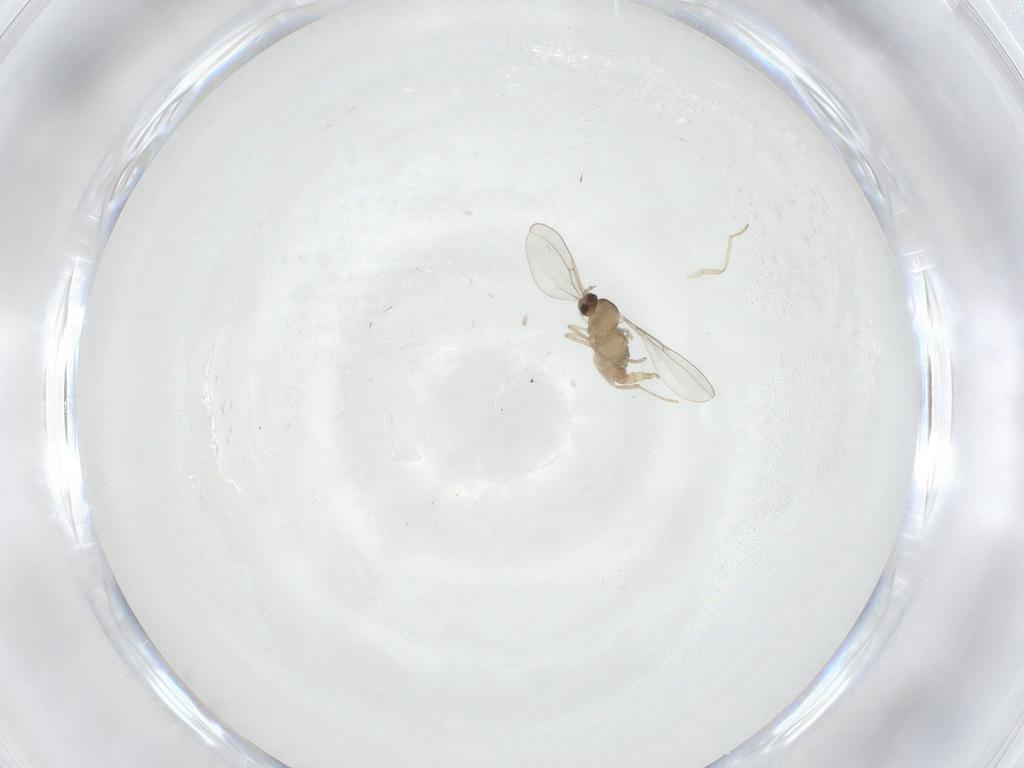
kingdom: Animalia
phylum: Arthropoda
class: Insecta
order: Diptera
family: Cecidomyiidae
